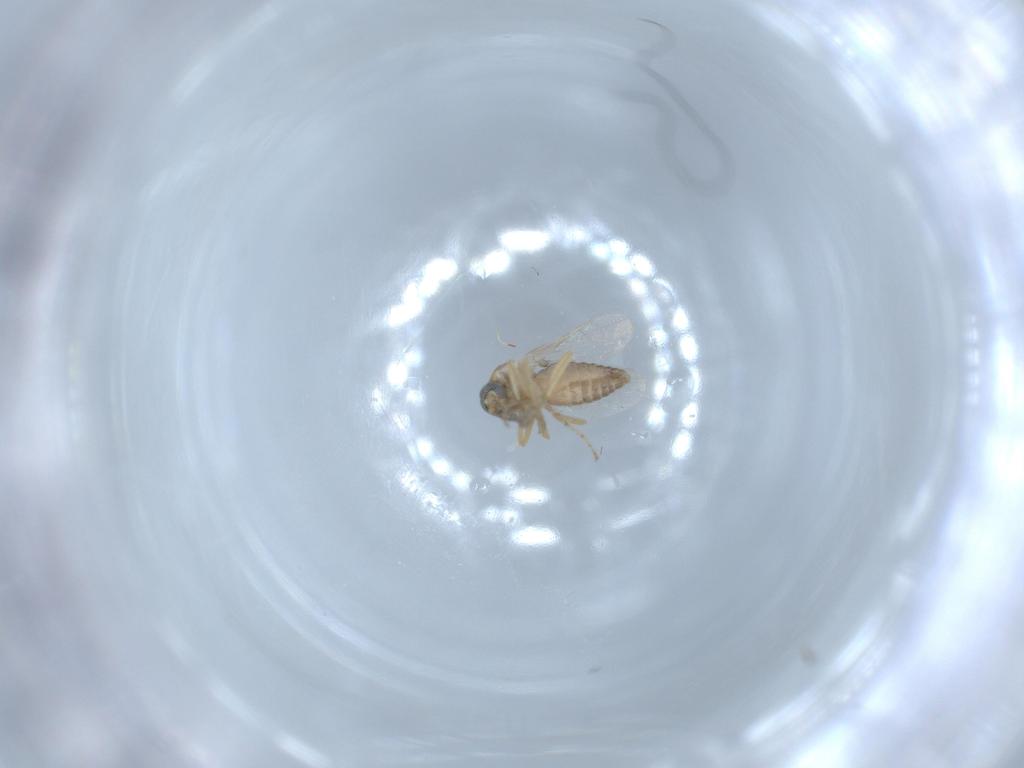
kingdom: Animalia
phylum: Arthropoda
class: Insecta
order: Diptera
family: Ceratopogonidae
